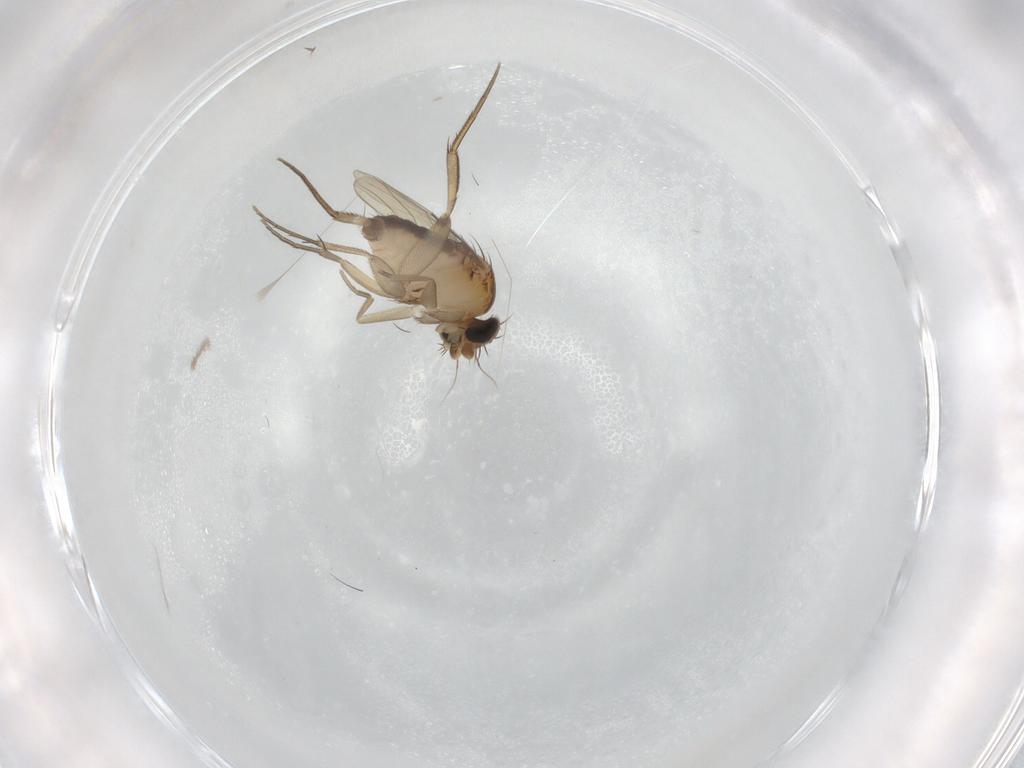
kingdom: Animalia
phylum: Arthropoda
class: Insecta
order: Diptera
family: Phoridae
